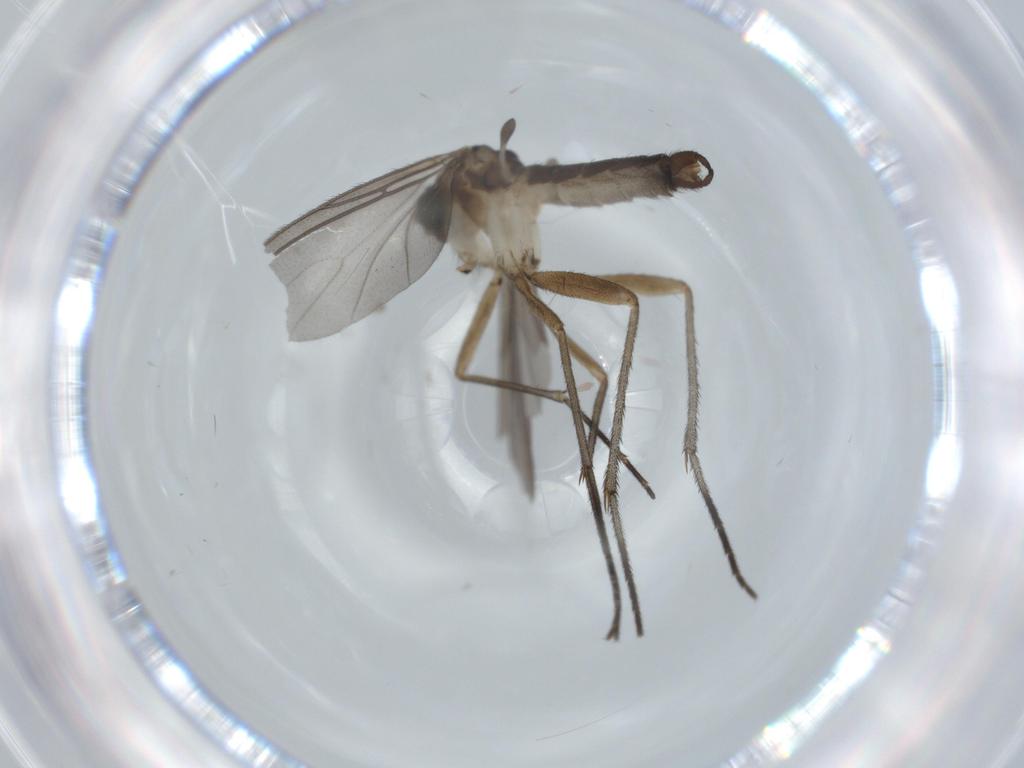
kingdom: Animalia
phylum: Arthropoda
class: Insecta
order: Diptera
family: Sciaridae
